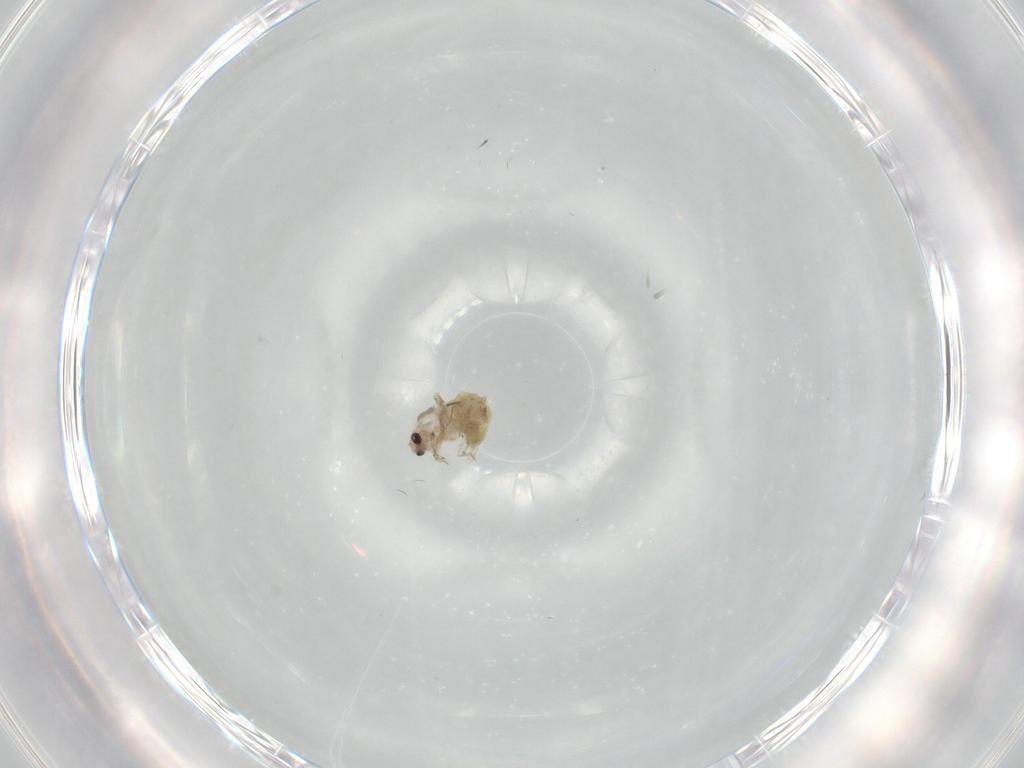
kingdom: Animalia
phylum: Arthropoda
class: Insecta
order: Diptera
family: Chironomidae
